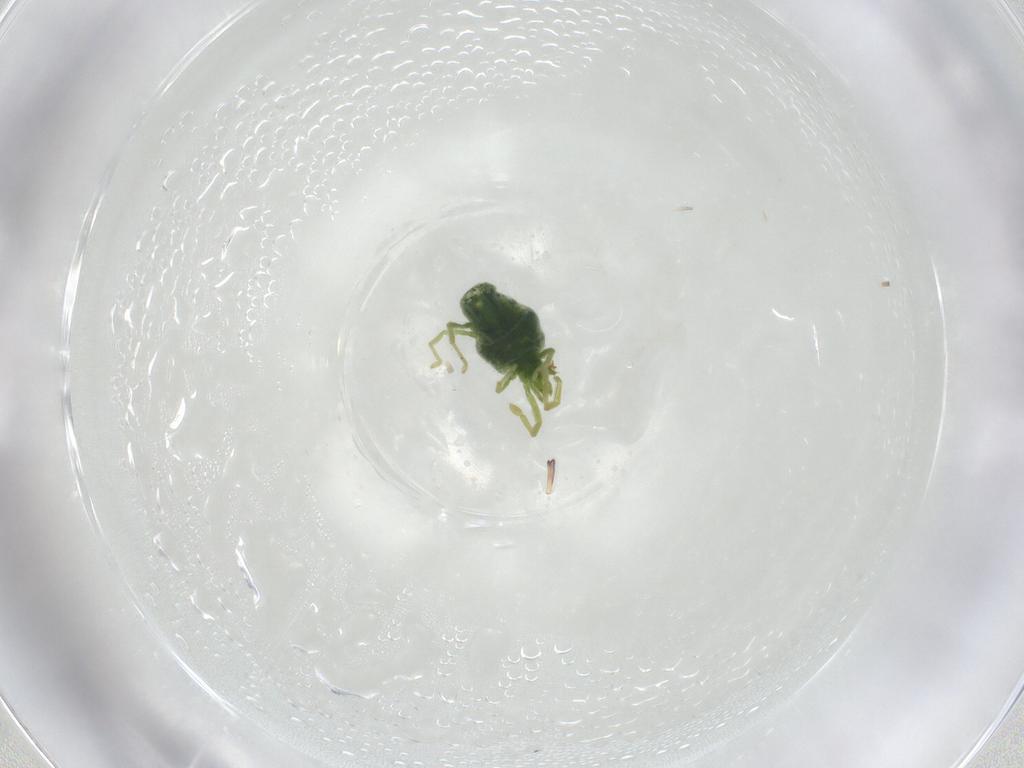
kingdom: Animalia
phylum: Arthropoda
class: Arachnida
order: Trombidiformes
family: Erythraeidae
